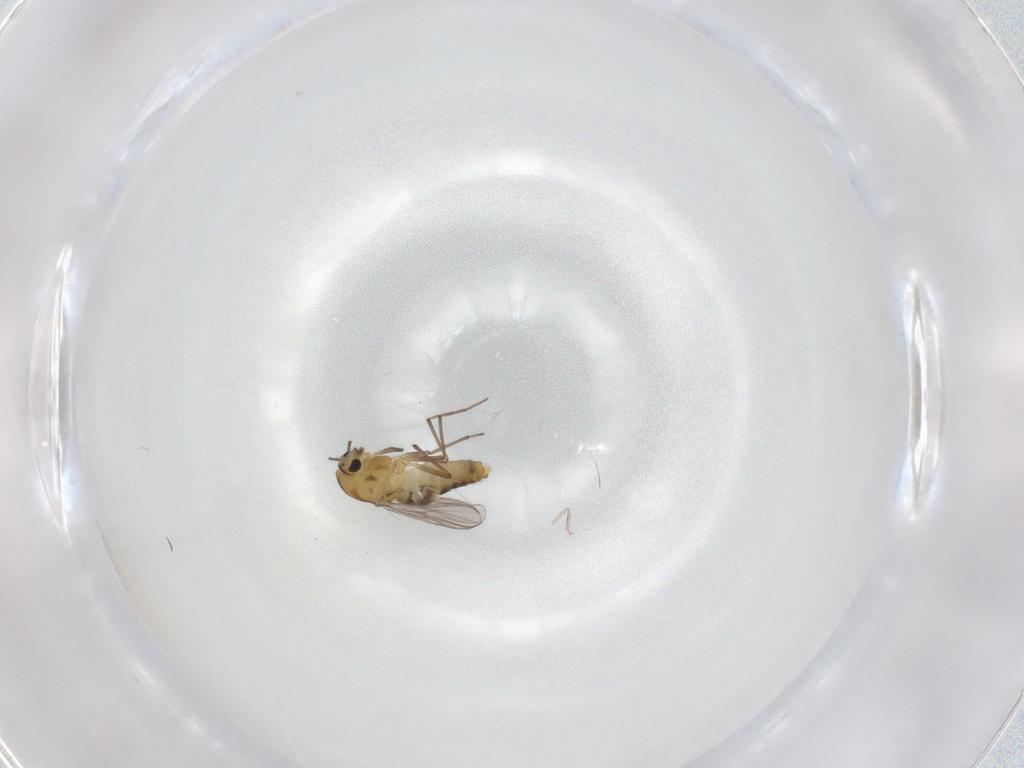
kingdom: Animalia
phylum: Arthropoda
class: Insecta
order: Diptera
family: Cecidomyiidae
